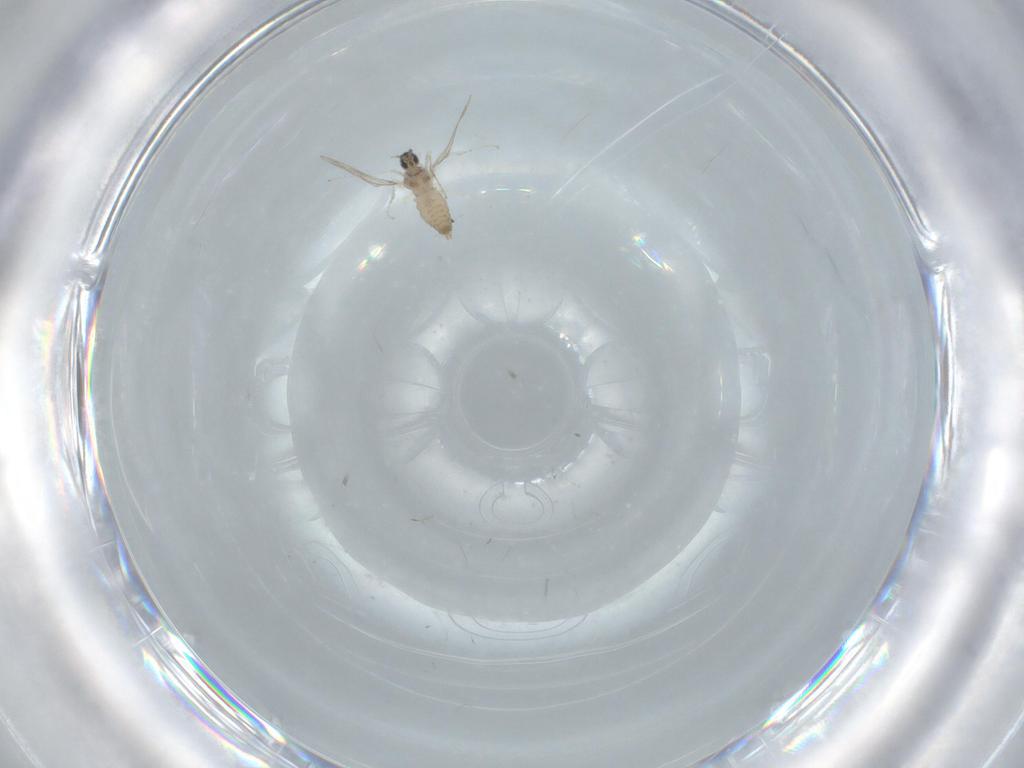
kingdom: Animalia
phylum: Arthropoda
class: Insecta
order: Diptera
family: Cecidomyiidae
